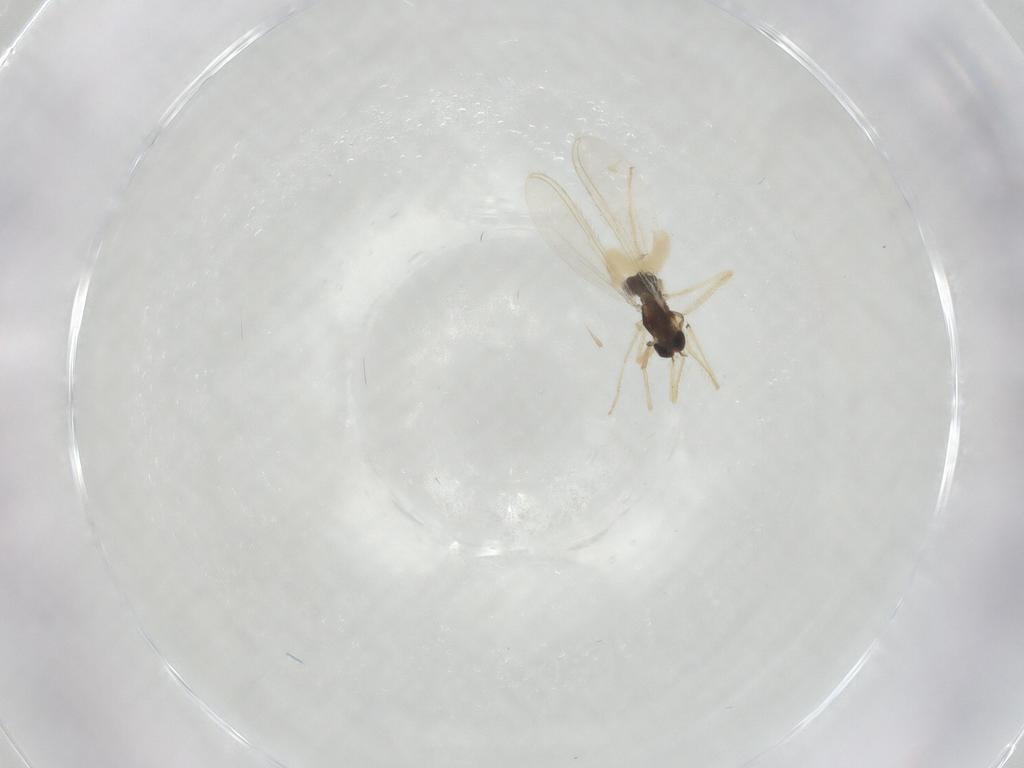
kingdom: Animalia
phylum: Arthropoda
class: Insecta
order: Diptera
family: Chironomidae
